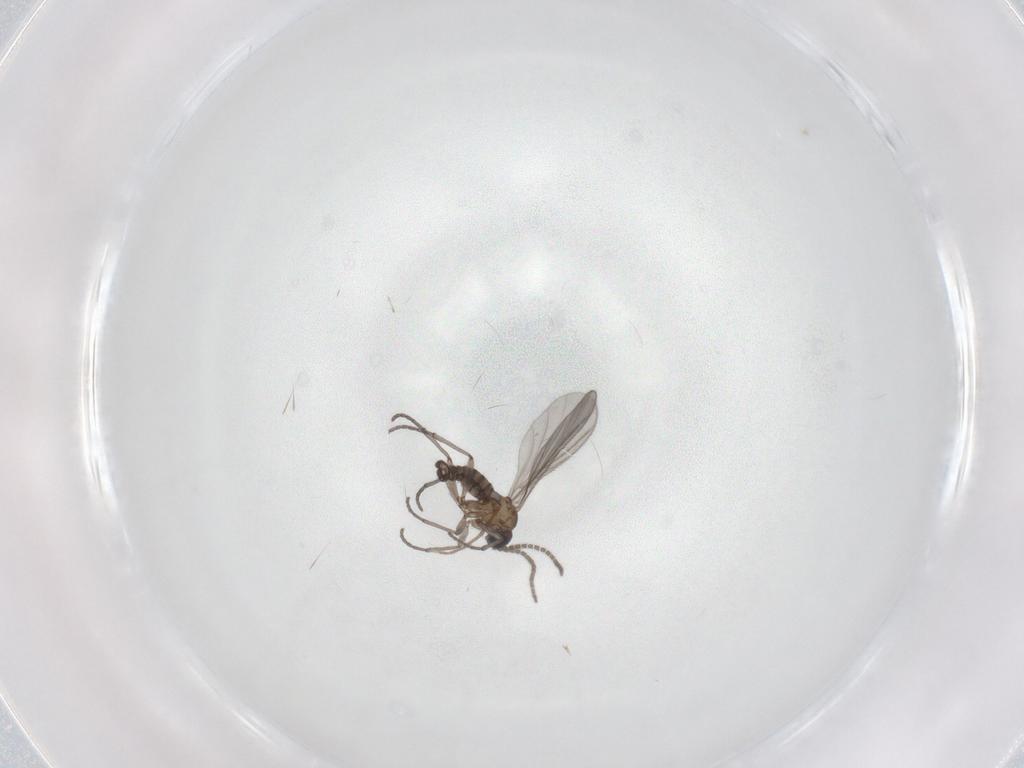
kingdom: Animalia
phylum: Arthropoda
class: Insecta
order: Diptera
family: Sciaridae
